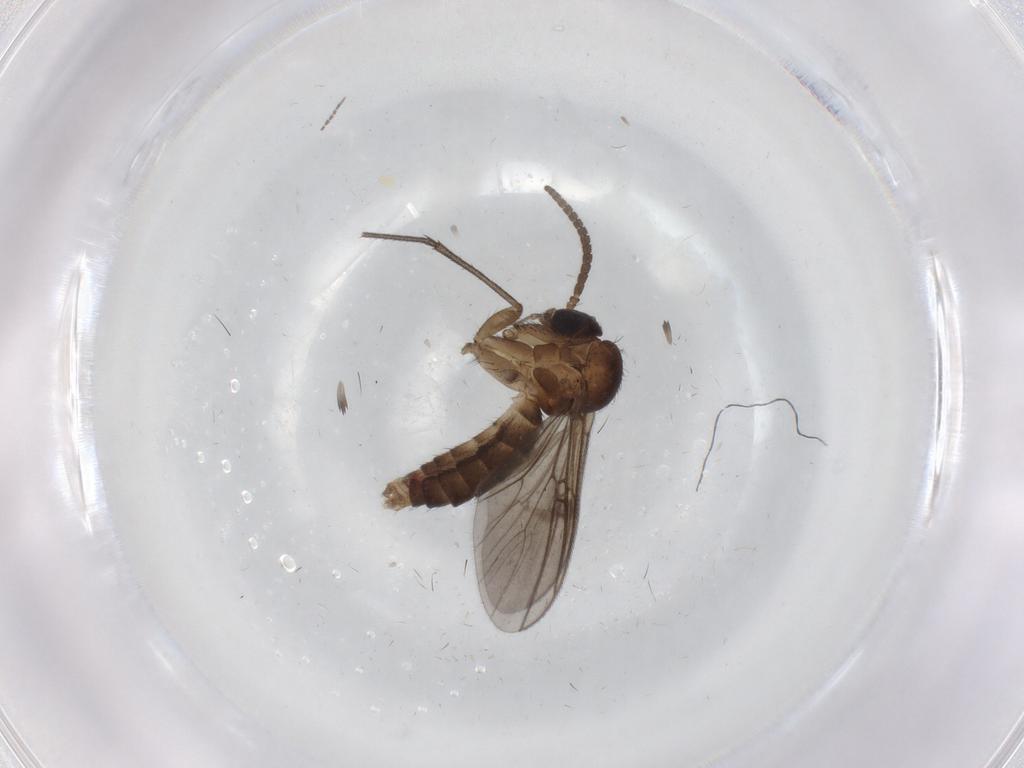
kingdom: Animalia
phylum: Arthropoda
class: Insecta
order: Diptera
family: Mycetophilidae
